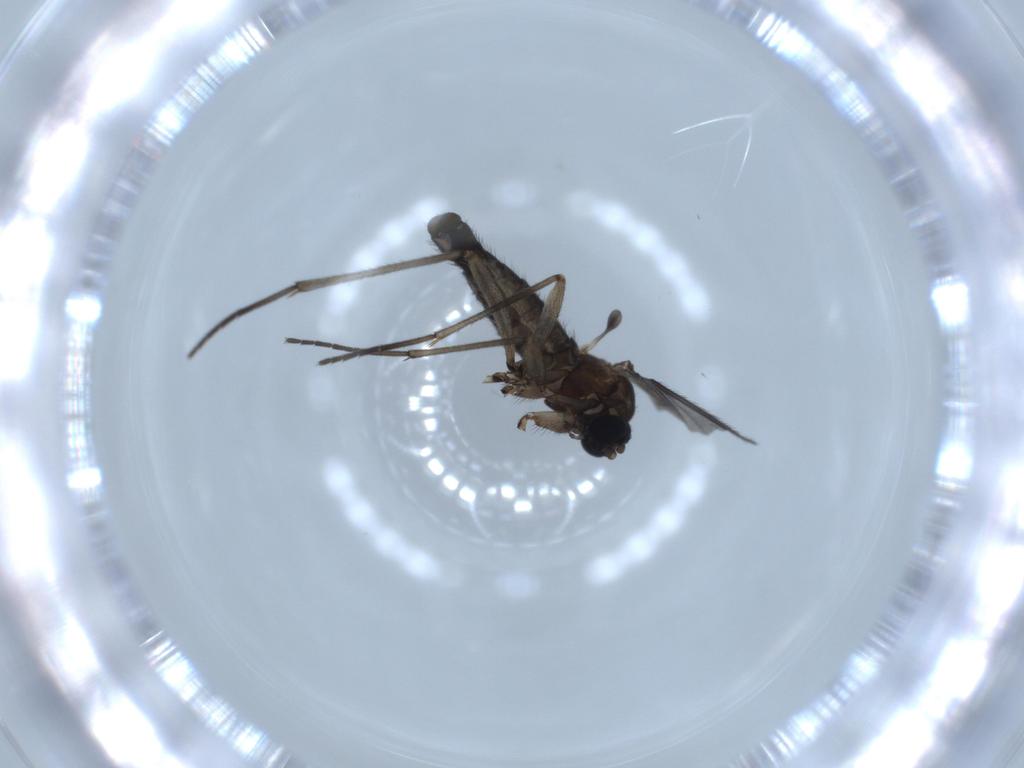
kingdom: Animalia
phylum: Arthropoda
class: Insecta
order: Diptera
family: Sciaridae
